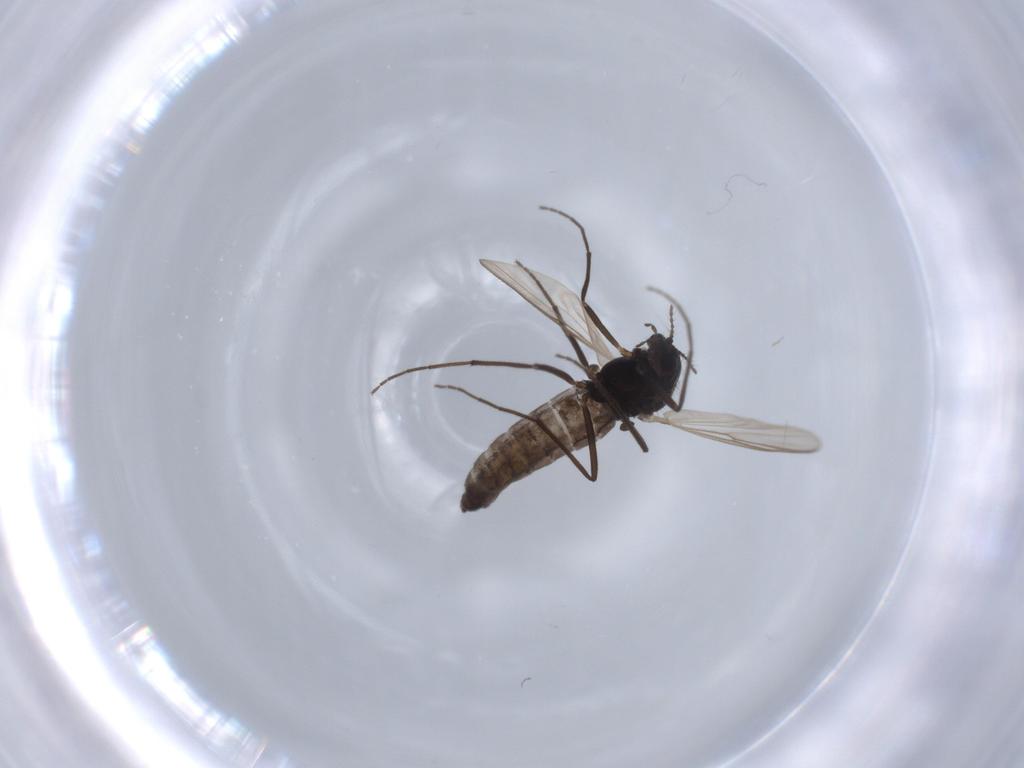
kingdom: Animalia
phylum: Arthropoda
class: Insecta
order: Diptera
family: Chironomidae
